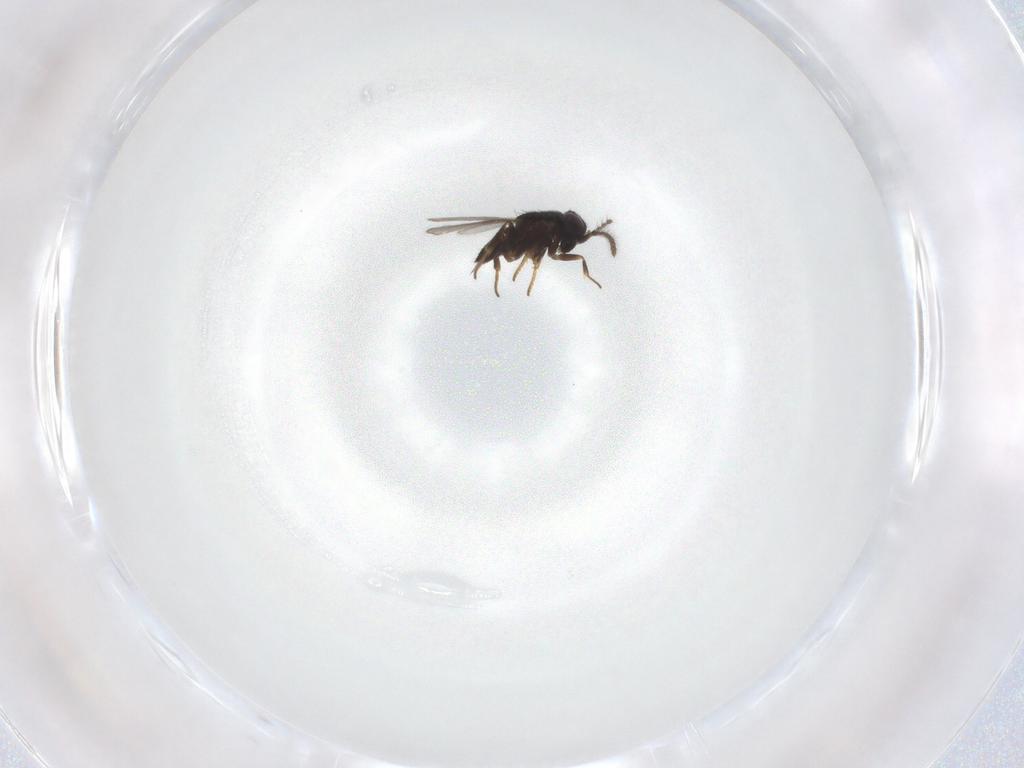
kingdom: Animalia
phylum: Arthropoda
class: Insecta
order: Hymenoptera
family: Encyrtidae
